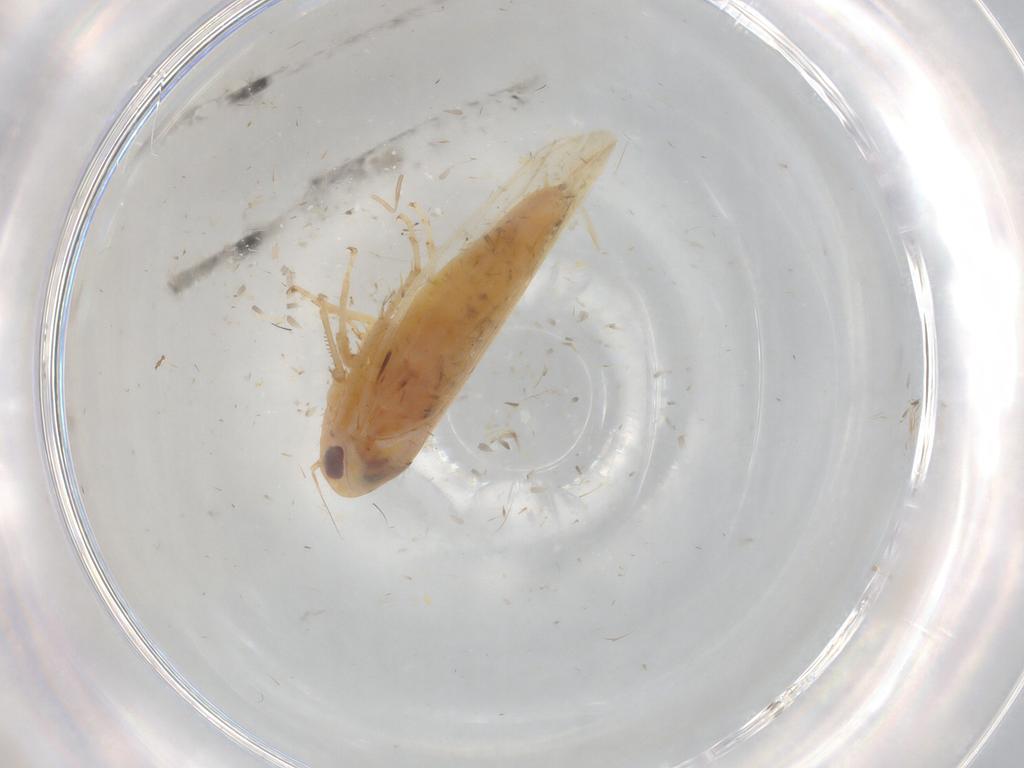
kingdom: Animalia
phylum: Arthropoda
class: Insecta
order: Hemiptera
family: Cicadellidae
